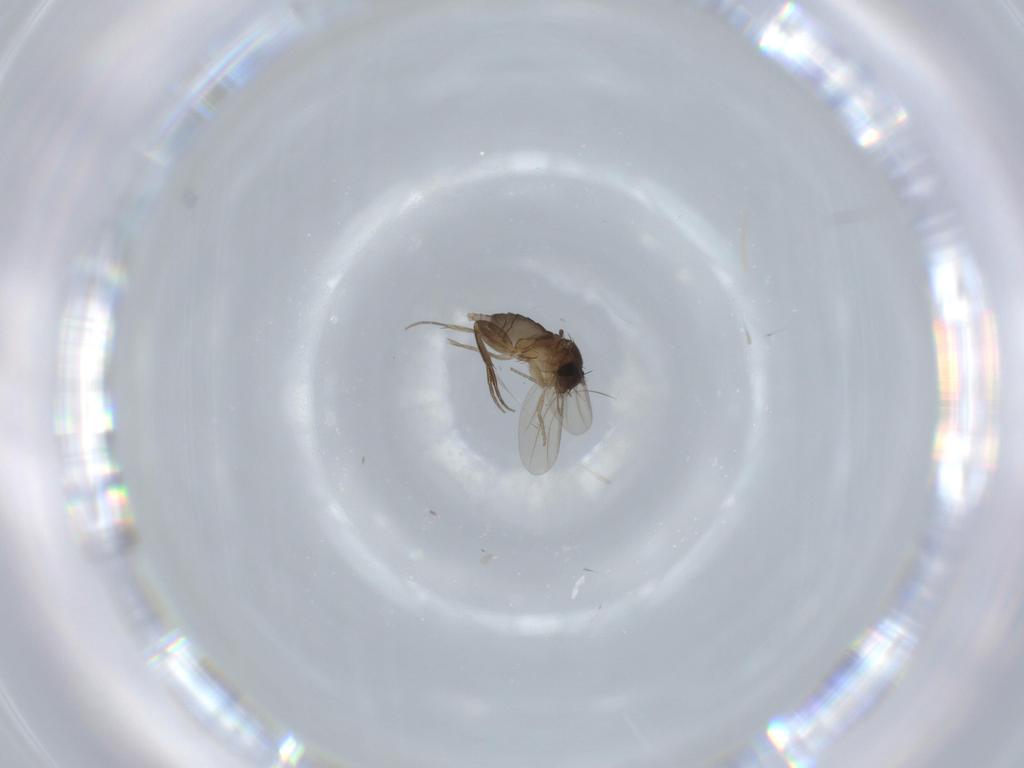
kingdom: Animalia
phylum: Arthropoda
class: Insecta
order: Diptera
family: Phoridae
